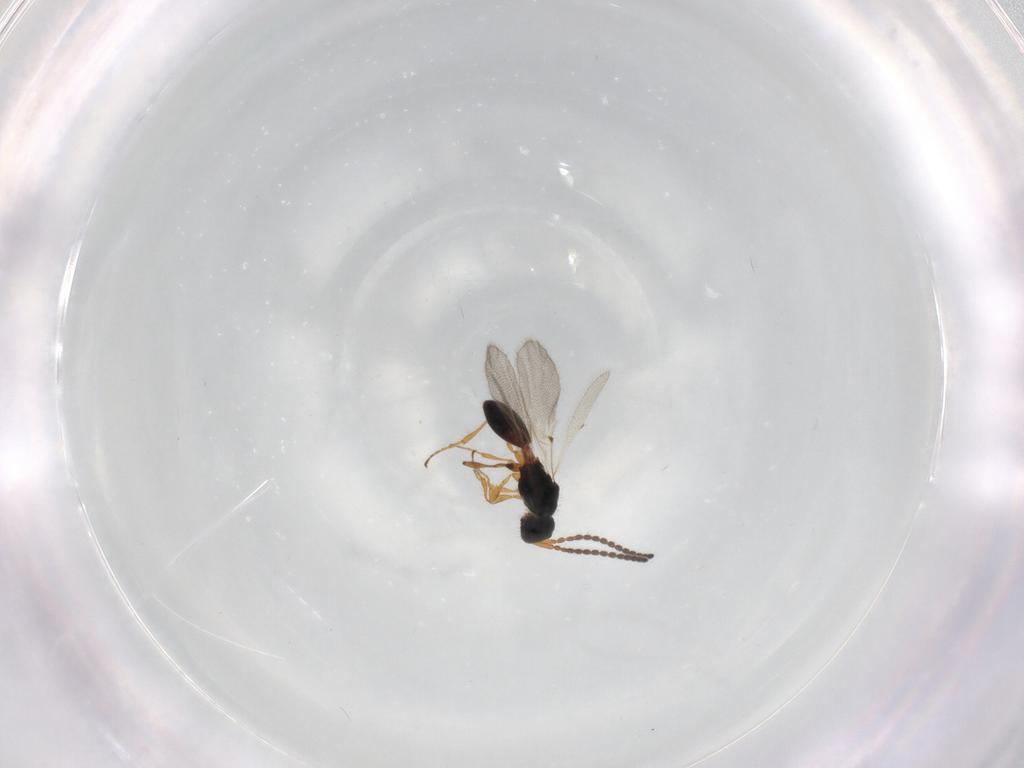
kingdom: Animalia
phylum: Arthropoda
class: Insecta
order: Hymenoptera
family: Scelionidae
